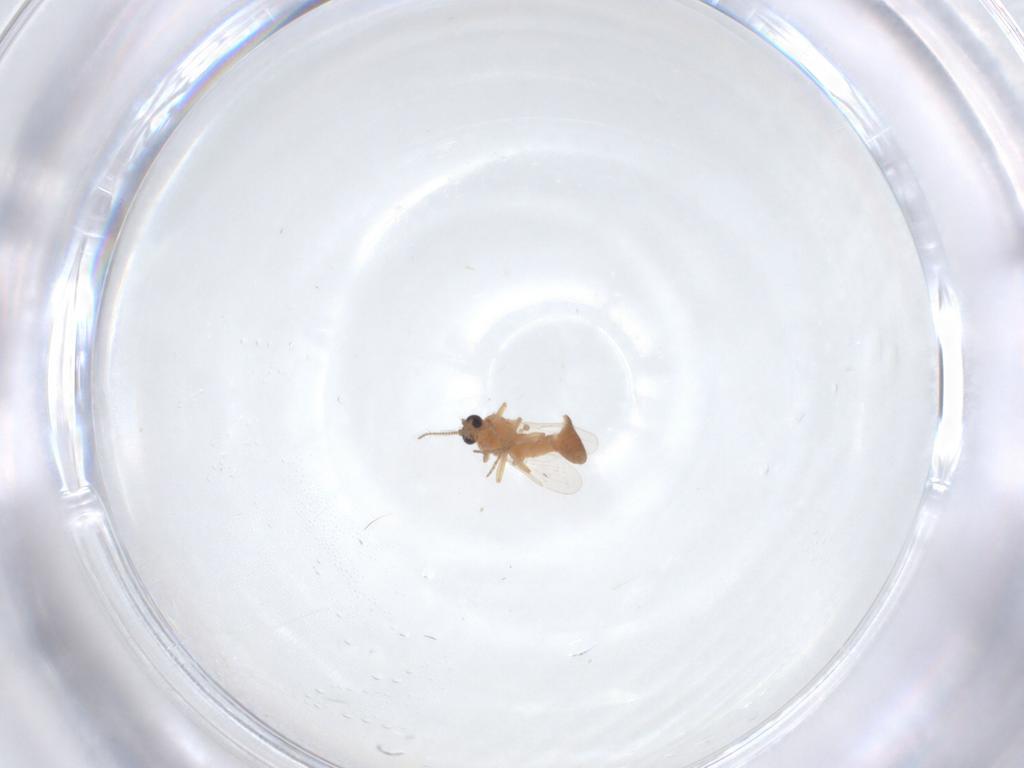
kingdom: Animalia
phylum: Arthropoda
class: Insecta
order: Diptera
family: Ceratopogonidae
